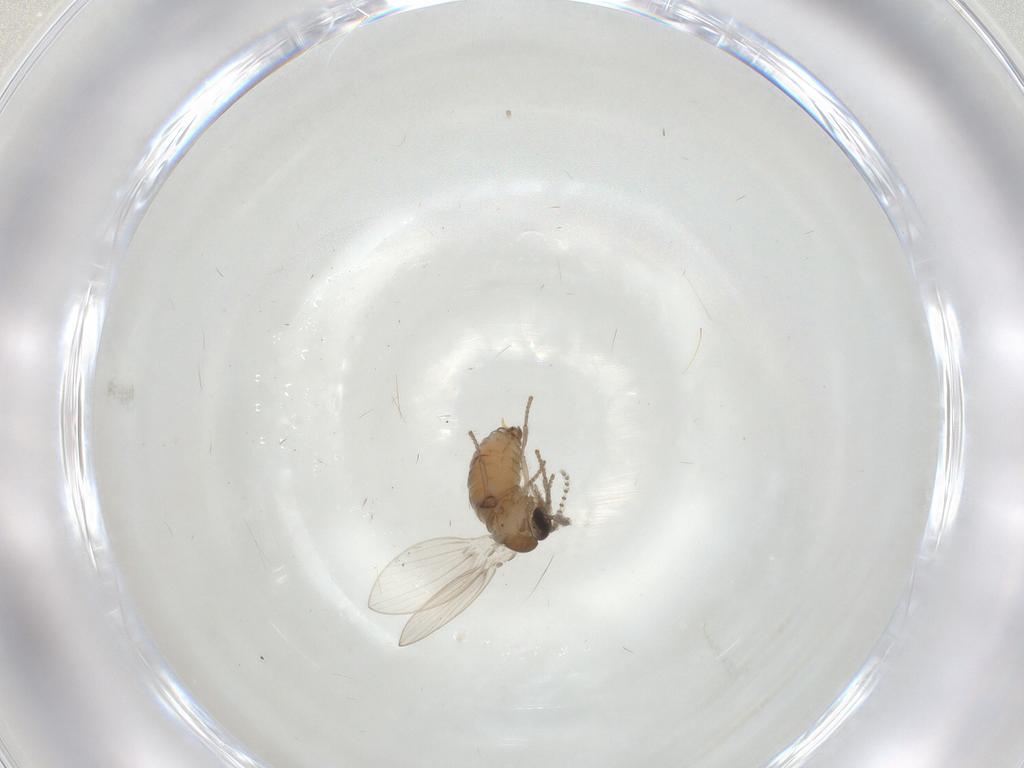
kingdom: Animalia
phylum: Arthropoda
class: Insecta
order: Diptera
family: Psychodidae
